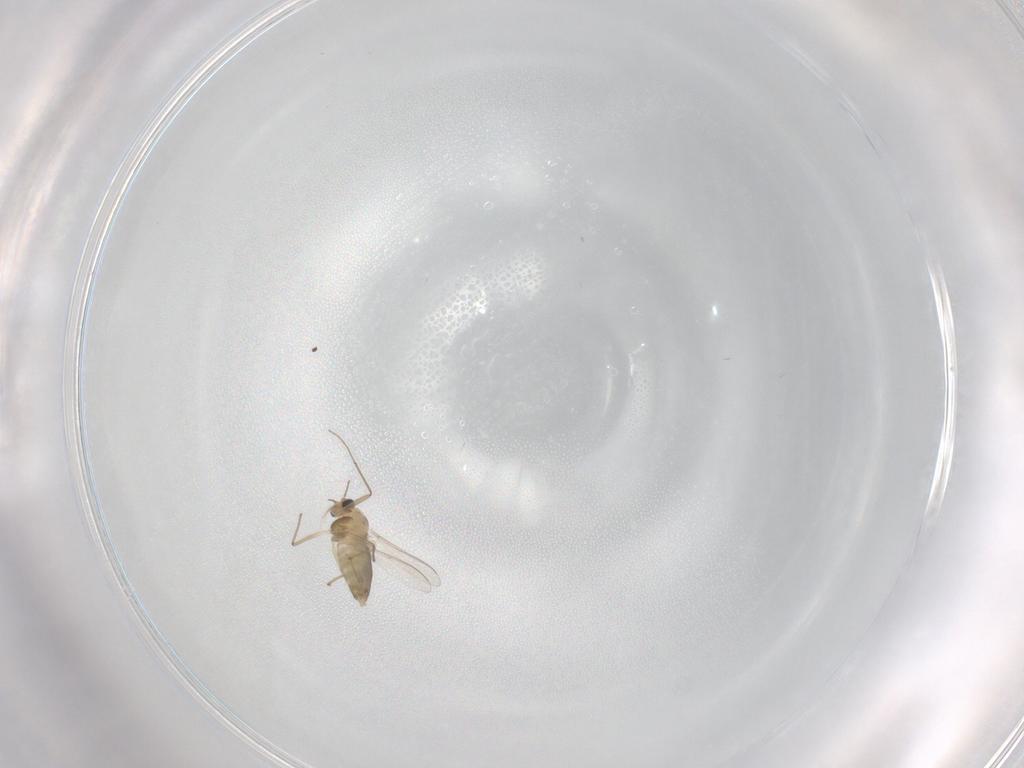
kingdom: Animalia
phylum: Arthropoda
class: Insecta
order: Diptera
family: Chironomidae
